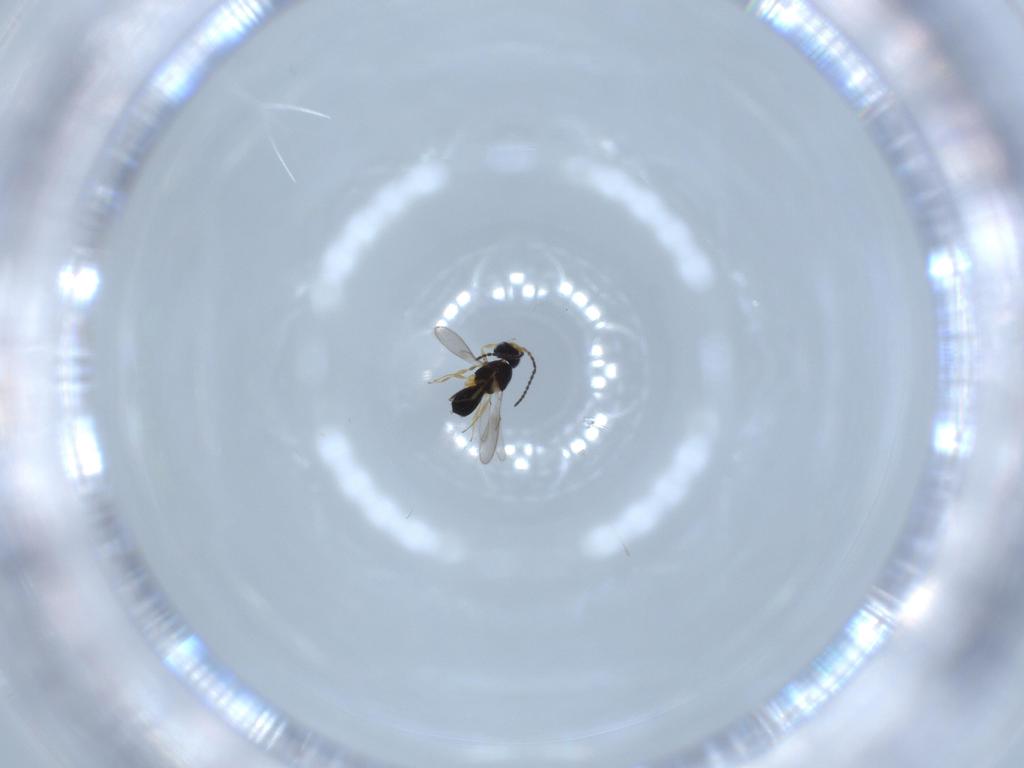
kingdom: Animalia
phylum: Arthropoda
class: Insecta
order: Hymenoptera
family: Scelionidae
